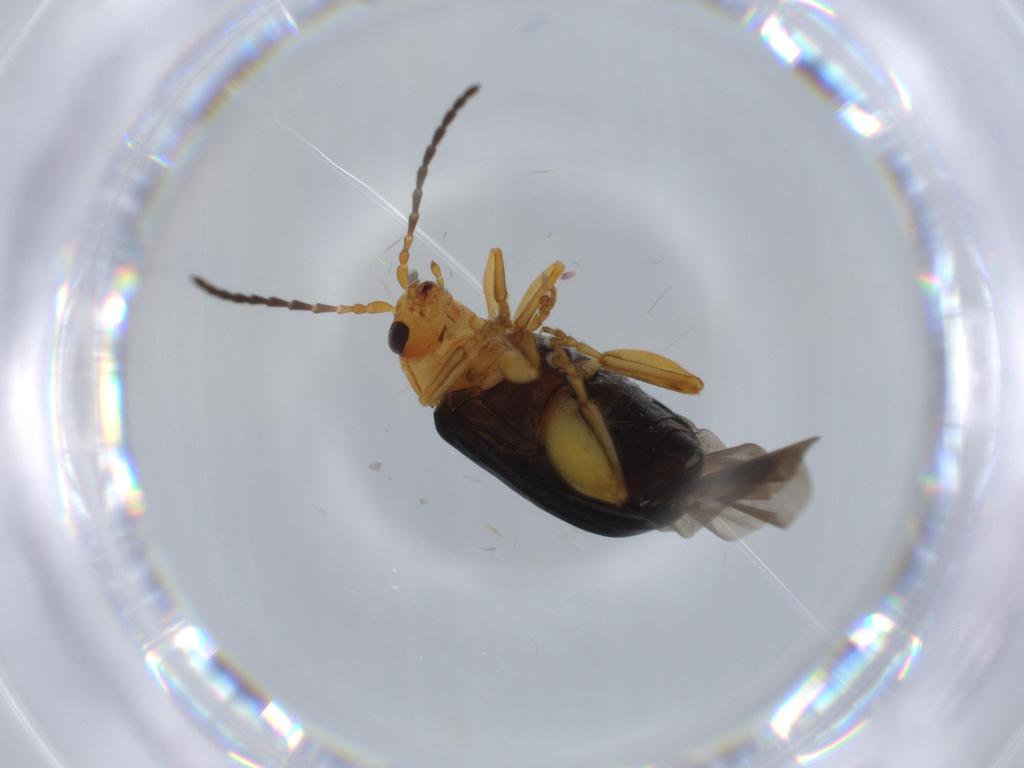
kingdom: Animalia
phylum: Arthropoda
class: Insecta
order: Coleoptera
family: Chrysomelidae
